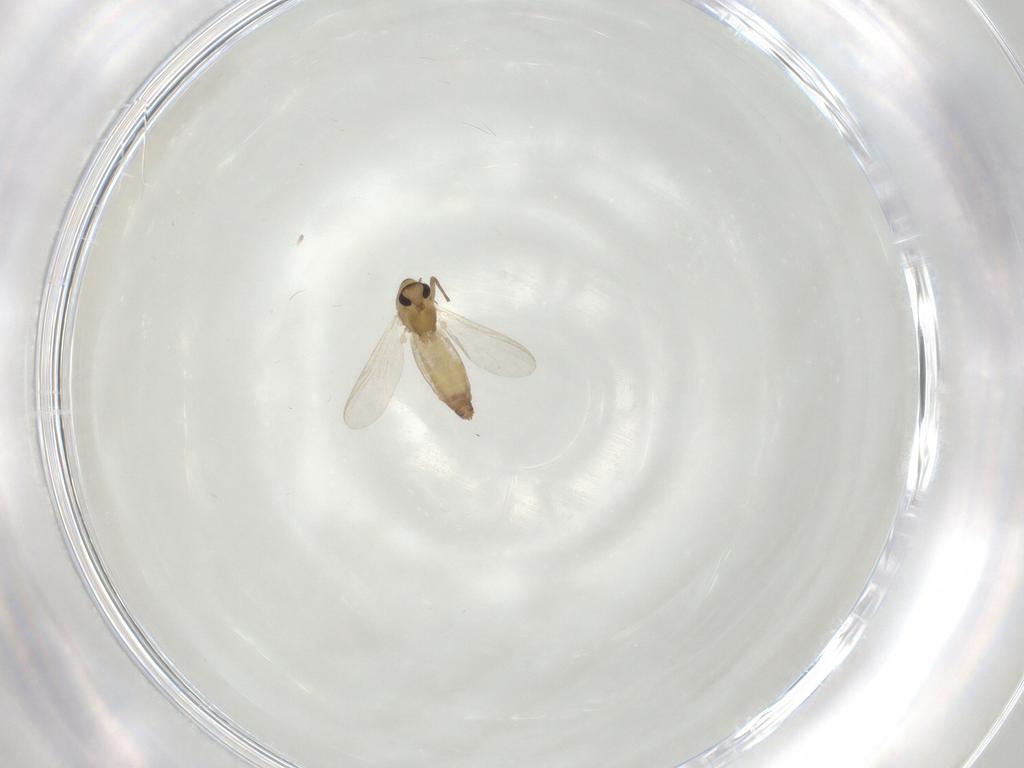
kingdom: Animalia
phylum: Arthropoda
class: Insecta
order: Diptera
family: Chironomidae
